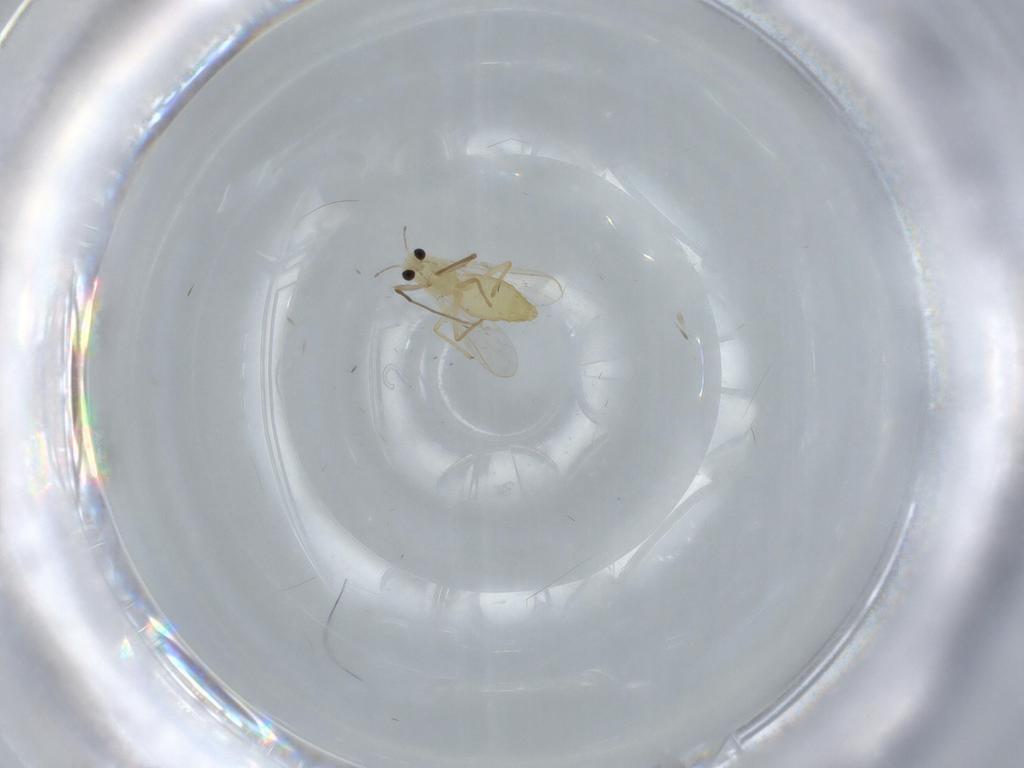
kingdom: Animalia
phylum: Arthropoda
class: Insecta
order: Diptera
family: Chironomidae
